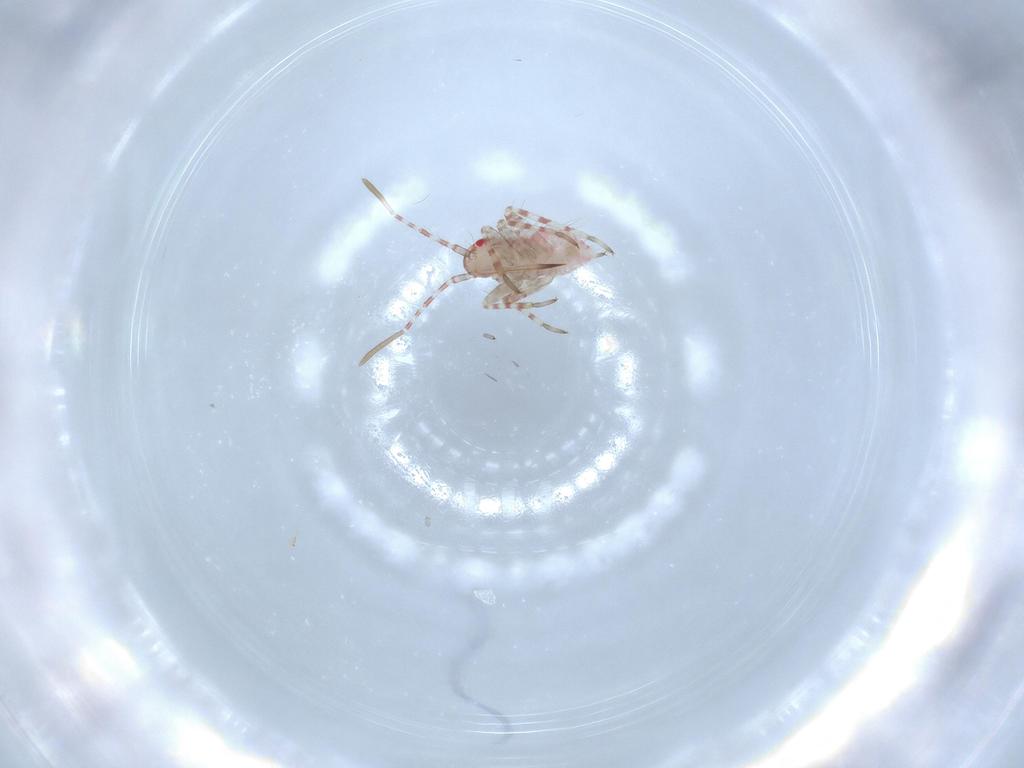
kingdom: Animalia
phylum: Arthropoda
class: Insecta
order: Hemiptera
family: Miridae
